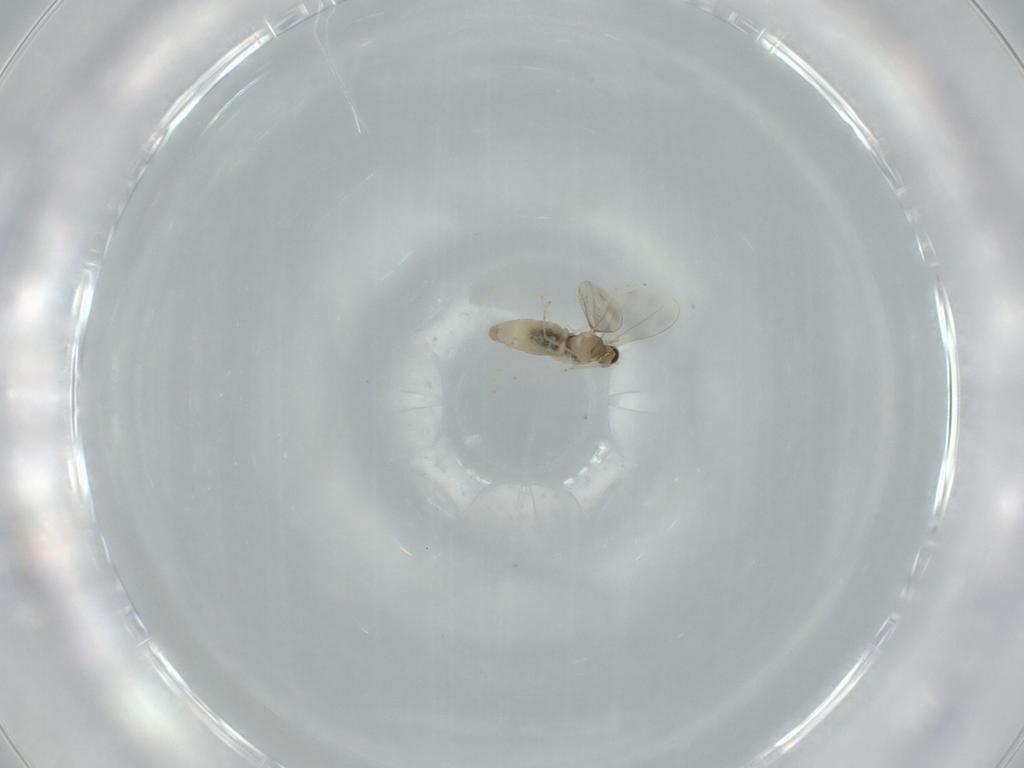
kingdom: Animalia
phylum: Arthropoda
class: Insecta
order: Diptera
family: Cecidomyiidae
